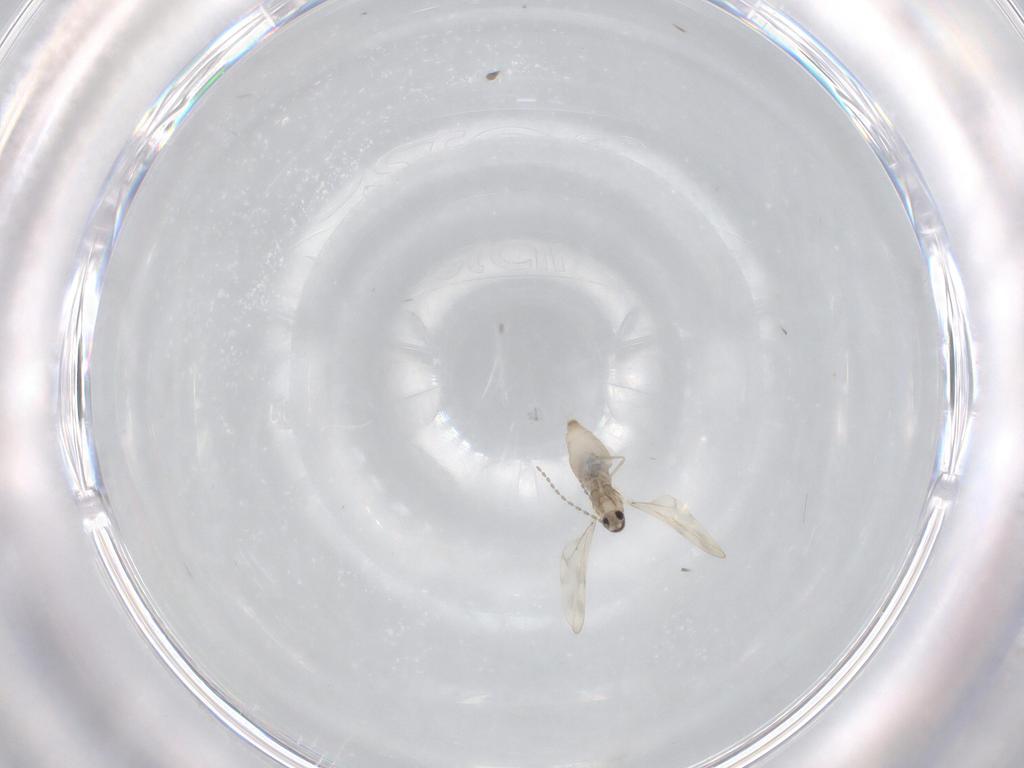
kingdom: Animalia
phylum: Arthropoda
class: Insecta
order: Diptera
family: Cecidomyiidae
